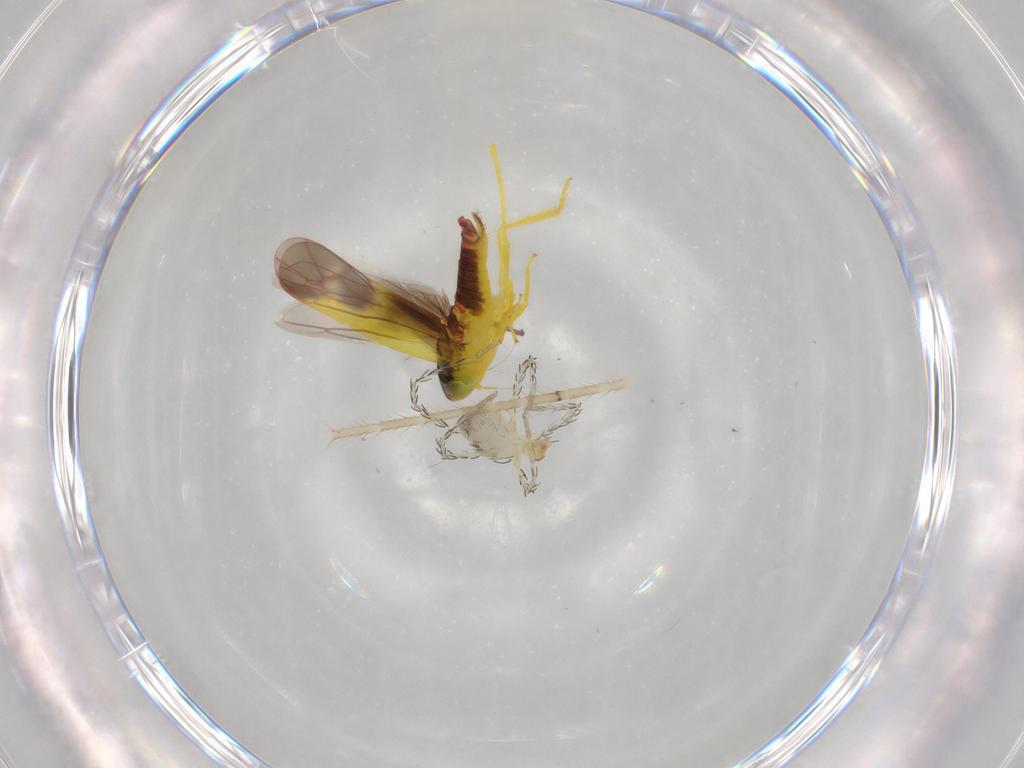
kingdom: Animalia
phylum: Arthropoda
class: Arachnida
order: Trombidiformes
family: Erythraeidae
